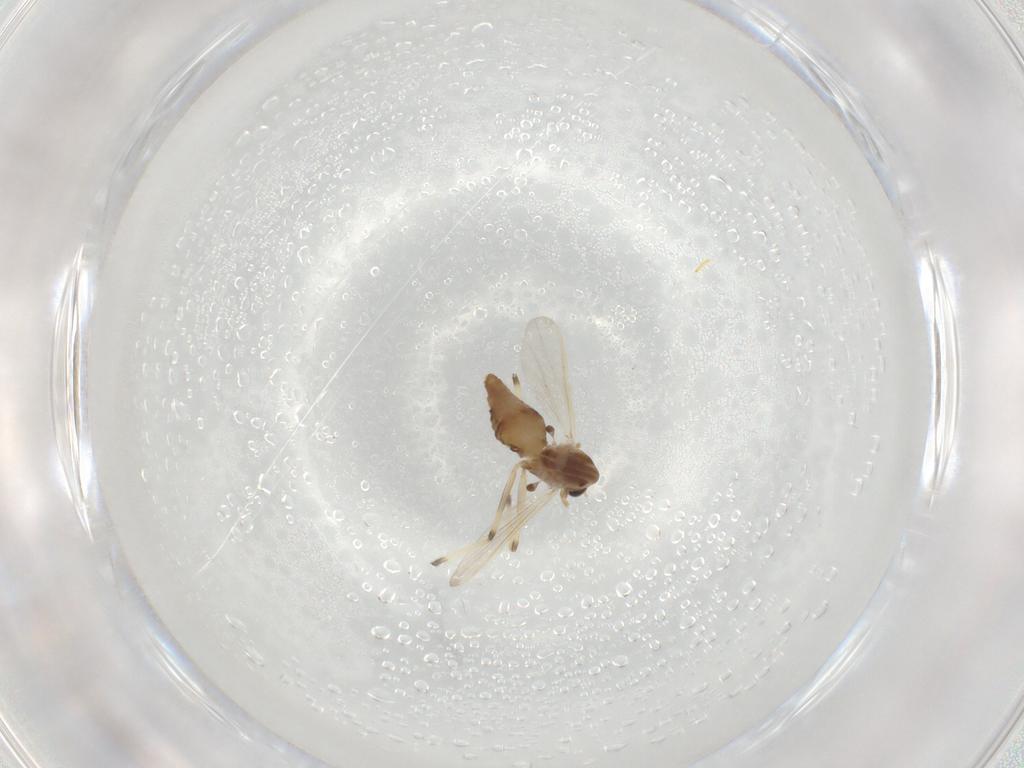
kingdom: Animalia
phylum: Arthropoda
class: Insecta
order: Diptera
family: Chironomidae
